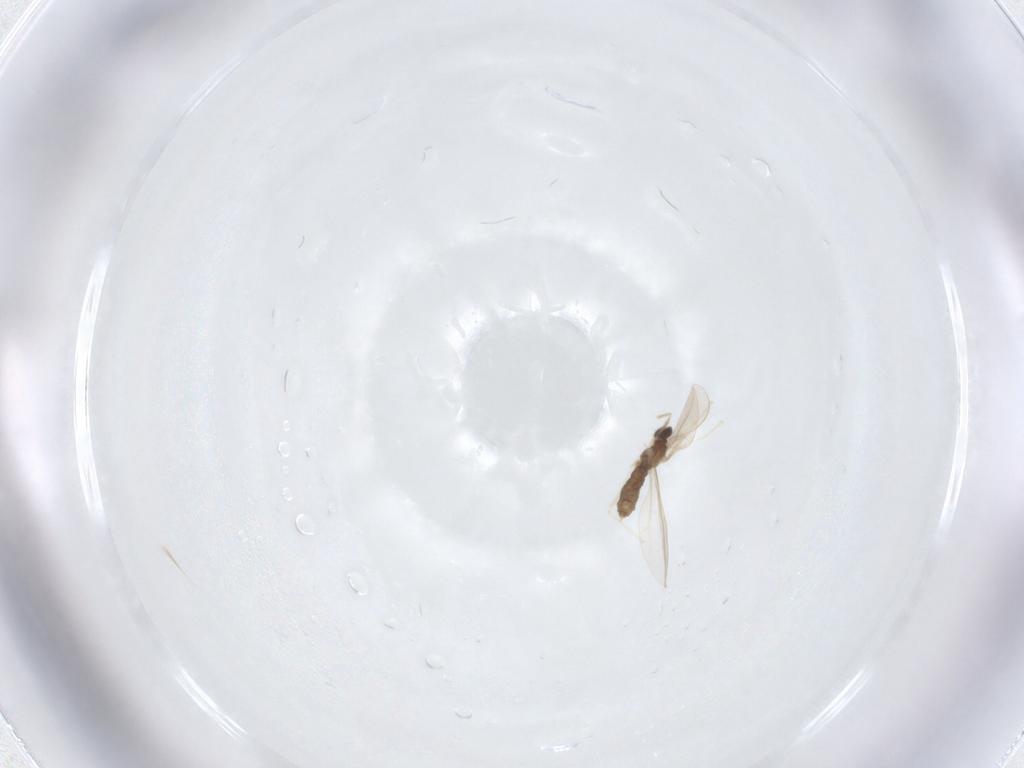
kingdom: Animalia
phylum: Arthropoda
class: Insecta
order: Diptera
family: Cecidomyiidae
